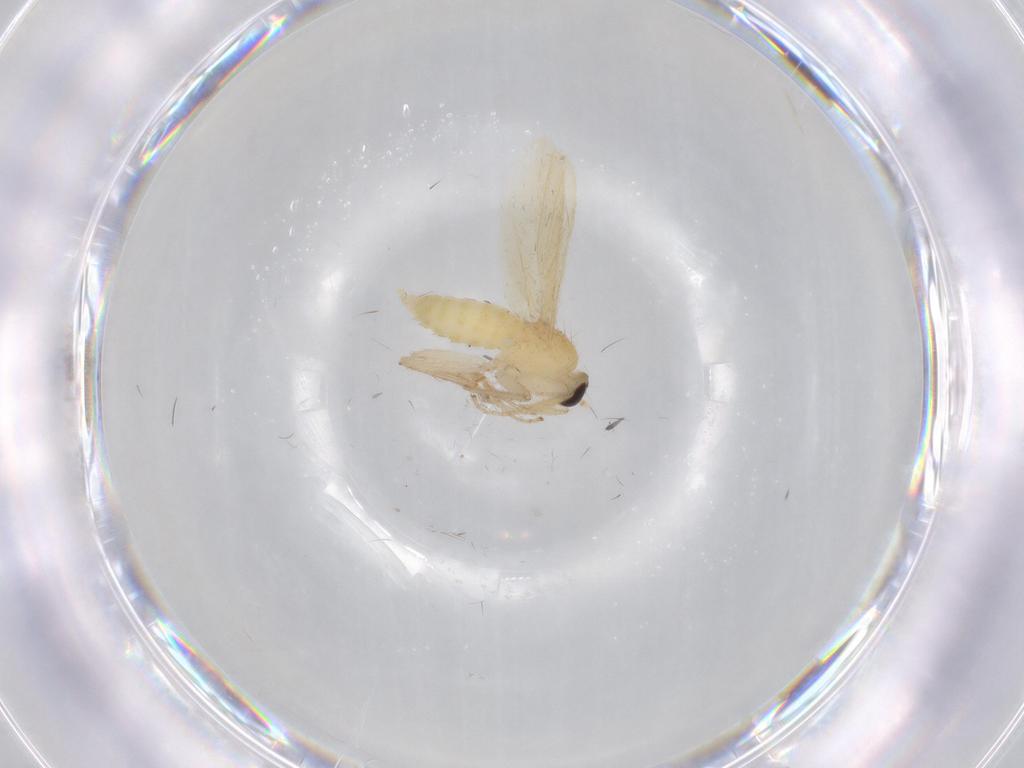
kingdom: Animalia
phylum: Arthropoda
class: Insecta
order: Diptera
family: Hybotidae
